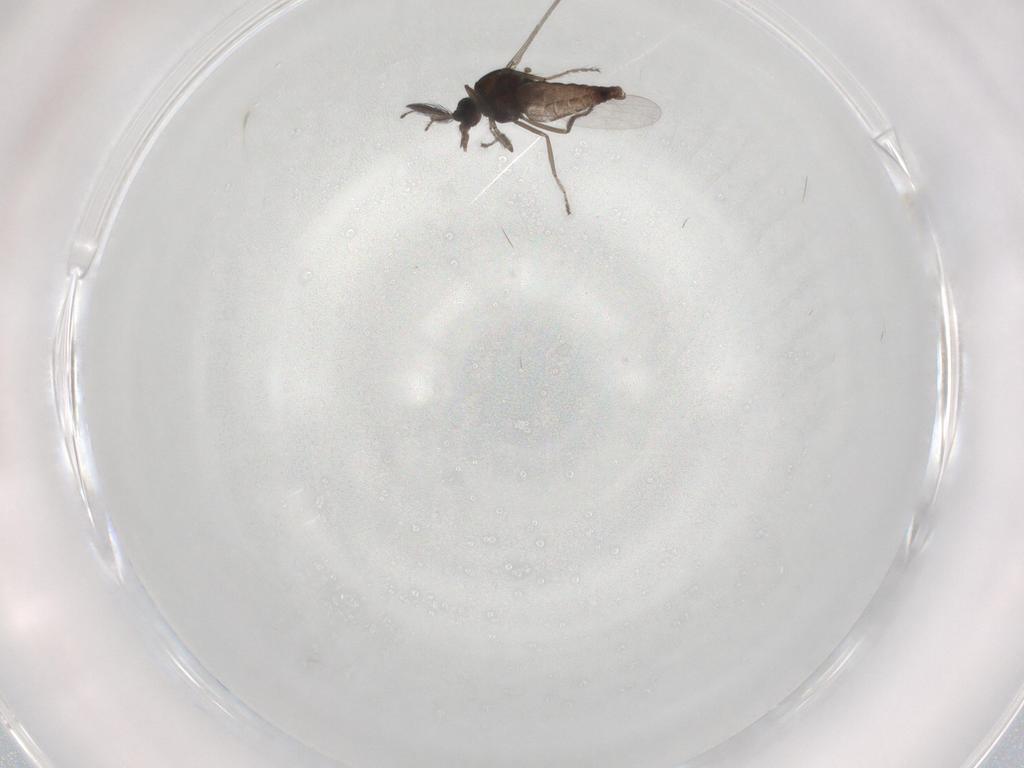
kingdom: Animalia
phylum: Arthropoda
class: Insecta
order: Diptera
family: Ceratopogonidae
